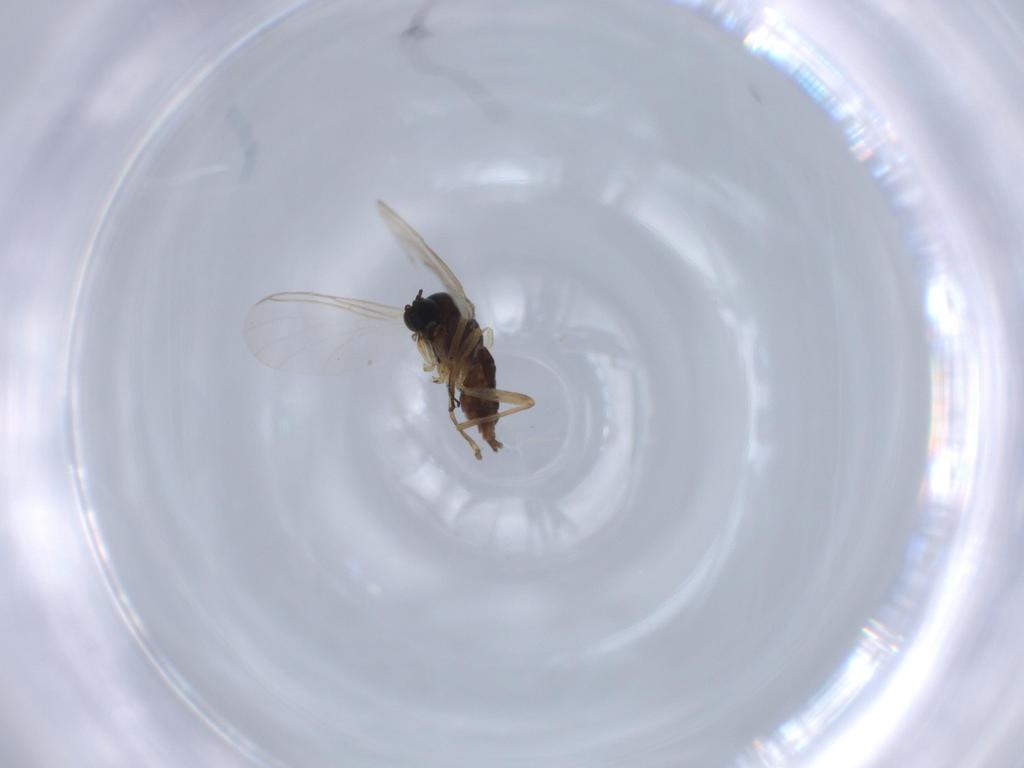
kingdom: Animalia
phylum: Arthropoda
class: Insecta
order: Diptera
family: Sciaridae
